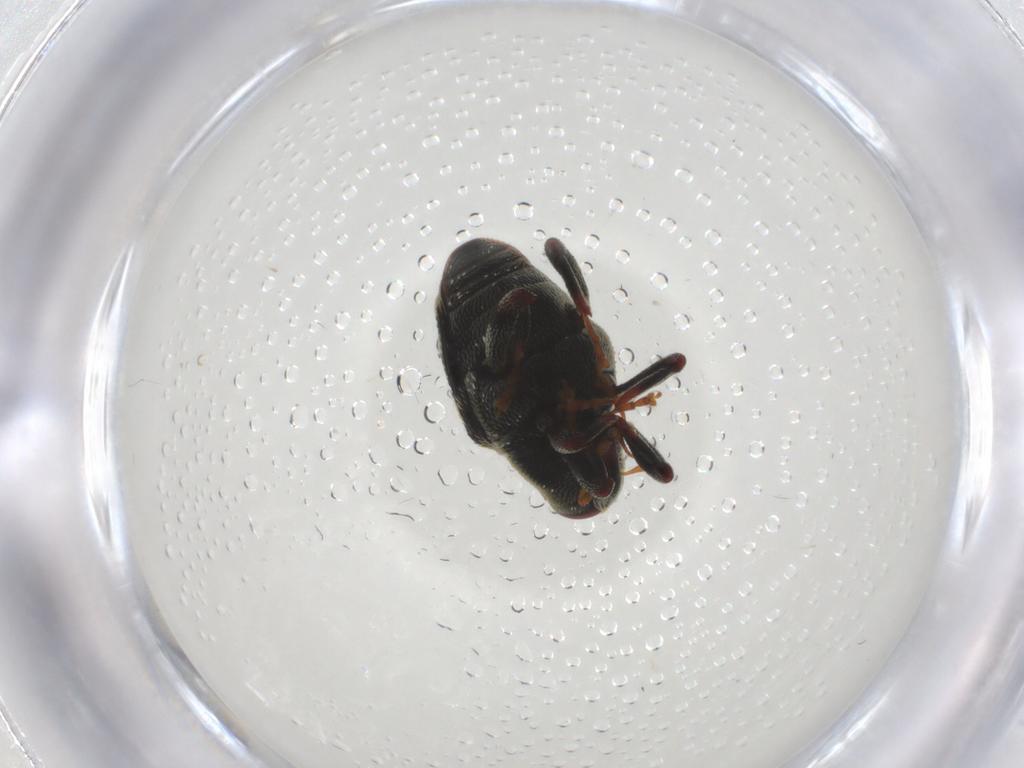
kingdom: Animalia
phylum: Arthropoda
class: Insecta
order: Coleoptera
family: Curculionidae
